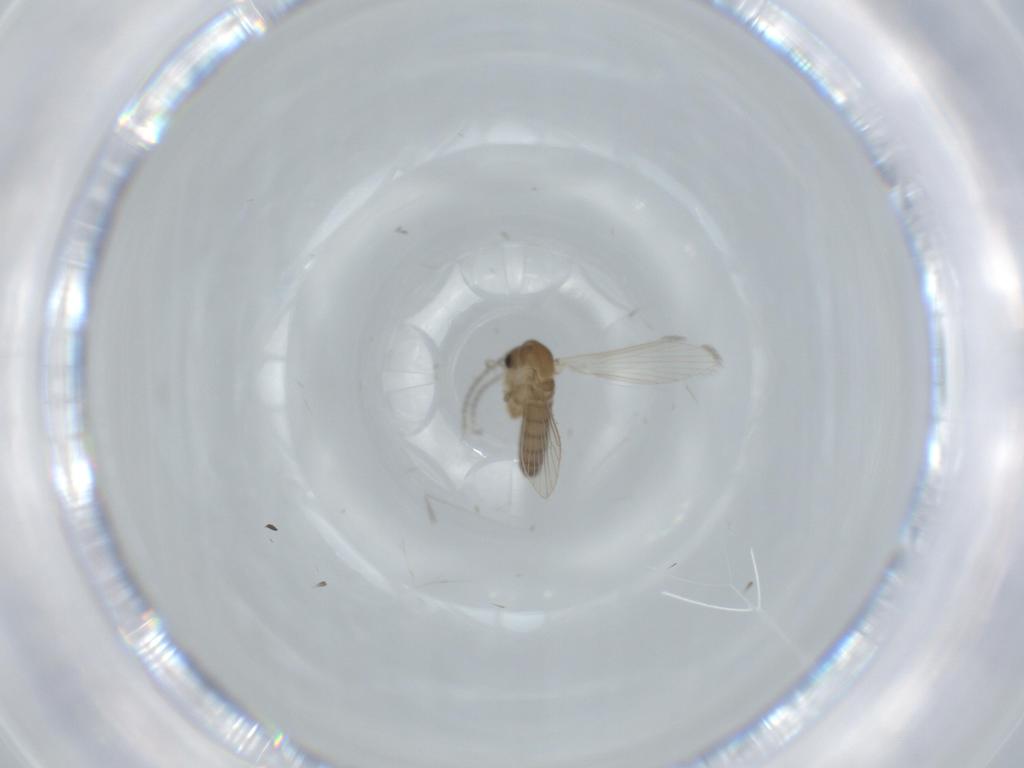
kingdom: Animalia
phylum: Arthropoda
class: Insecta
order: Diptera
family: Psychodidae
